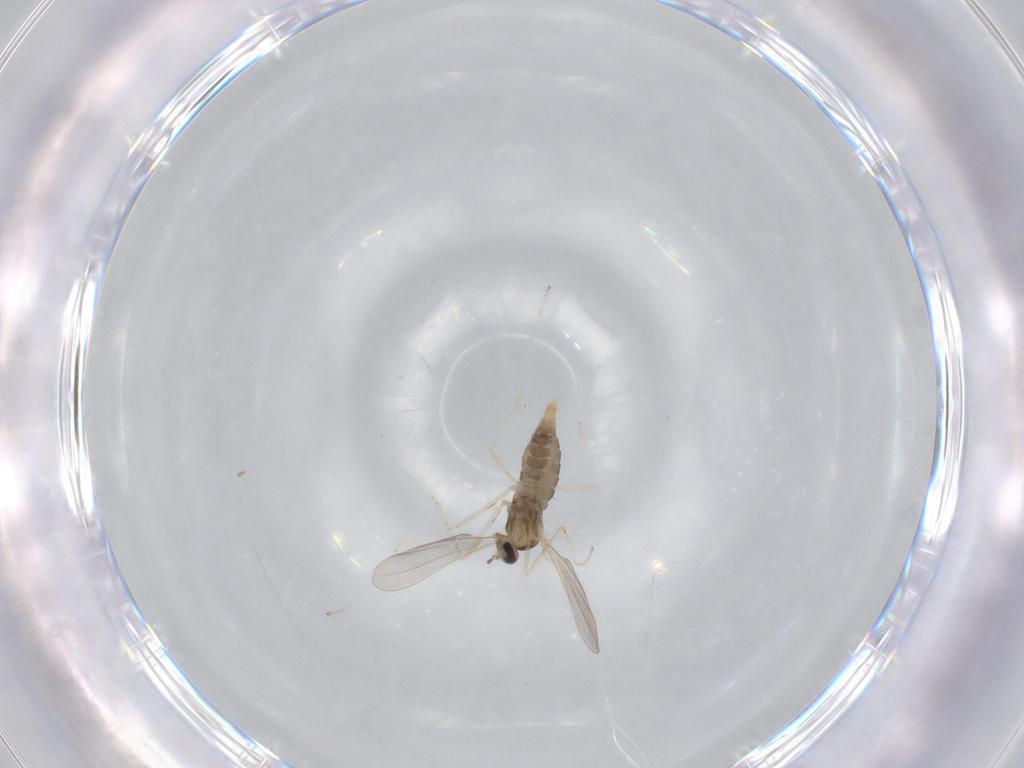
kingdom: Animalia
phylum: Arthropoda
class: Insecta
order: Diptera
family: Cecidomyiidae
